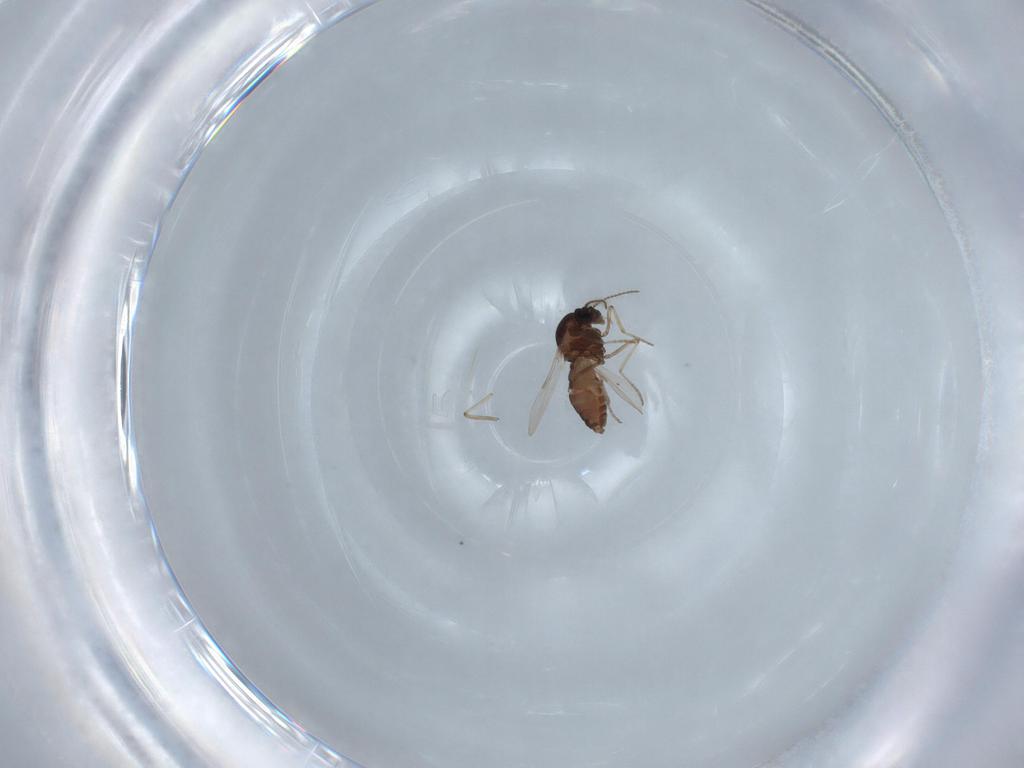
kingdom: Animalia
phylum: Arthropoda
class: Insecta
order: Diptera
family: Ceratopogonidae
